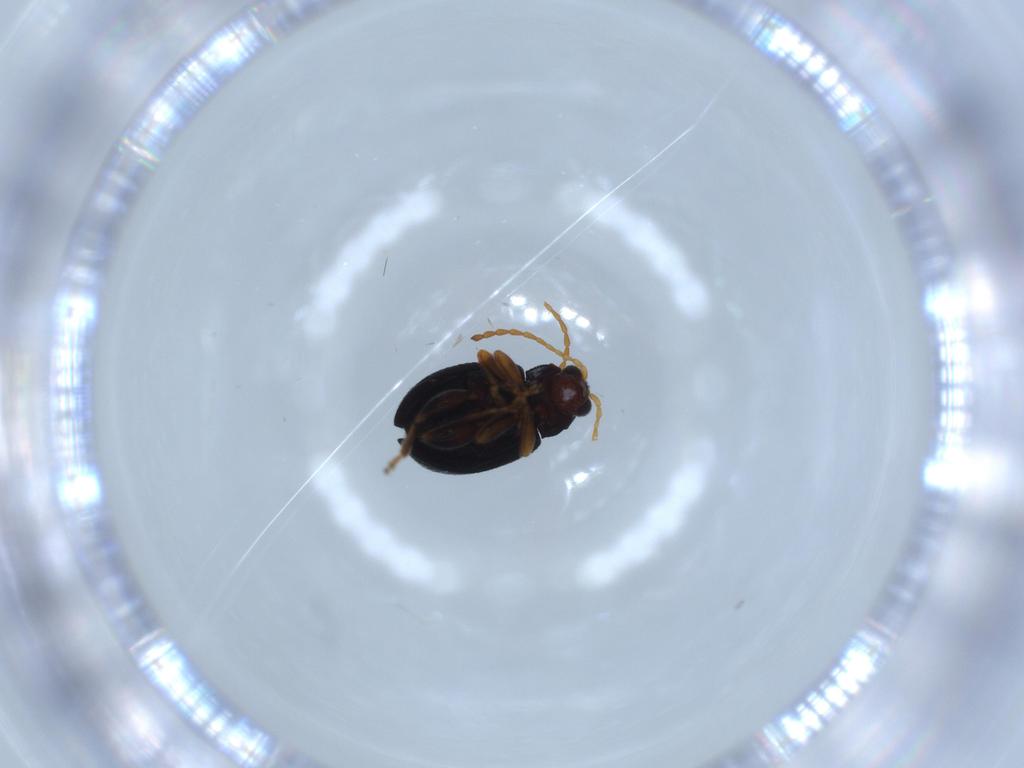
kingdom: Animalia
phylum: Arthropoda
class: Insecta
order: Coleoptera
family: Chrysomelidae
